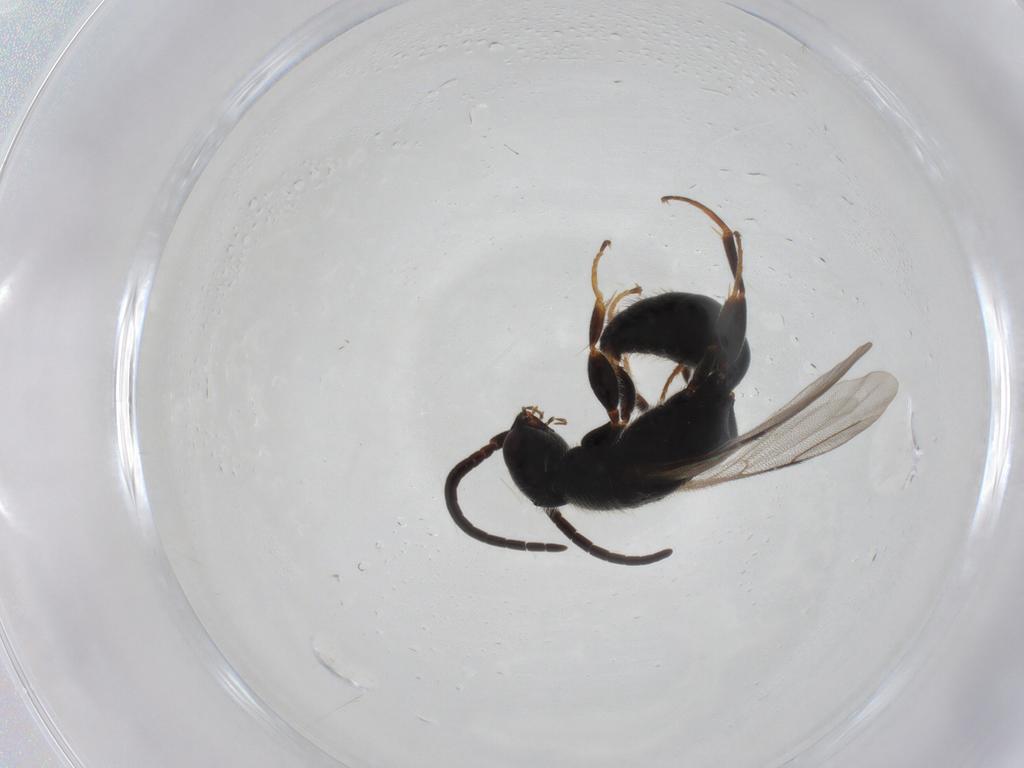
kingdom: Animalia
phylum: Arthropoda
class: Insecta
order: Hymenoptera
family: Bethylidae
